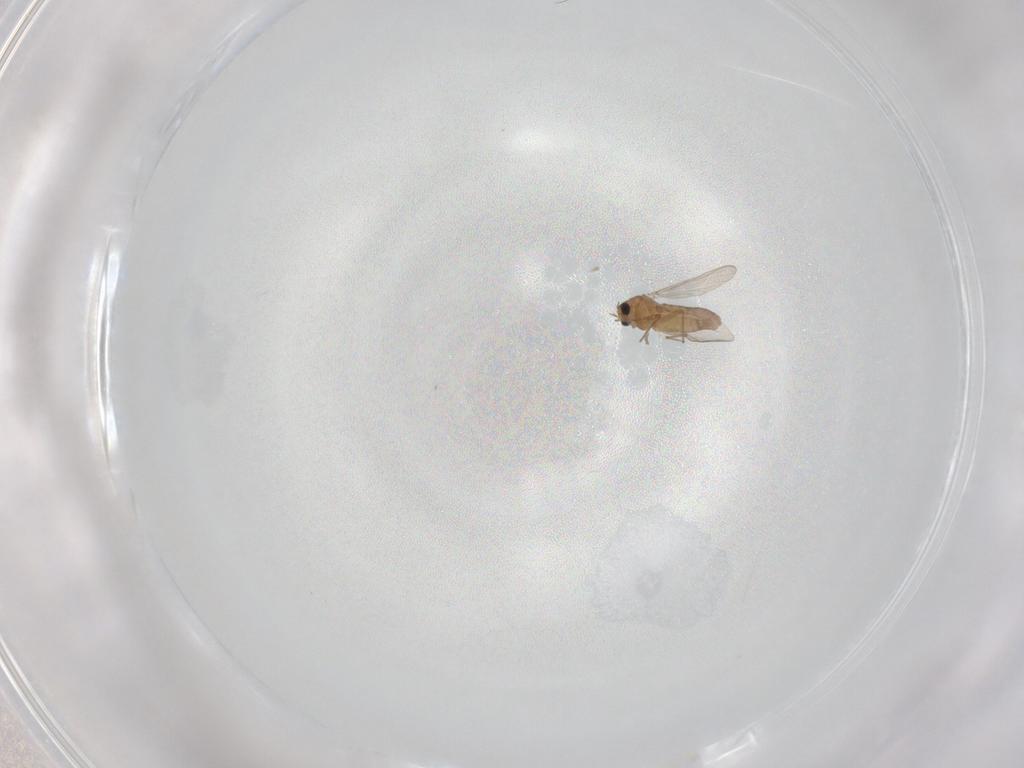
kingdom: Animalia
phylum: Arthropoda
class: Insecta
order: Diptera
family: Chironomidae
